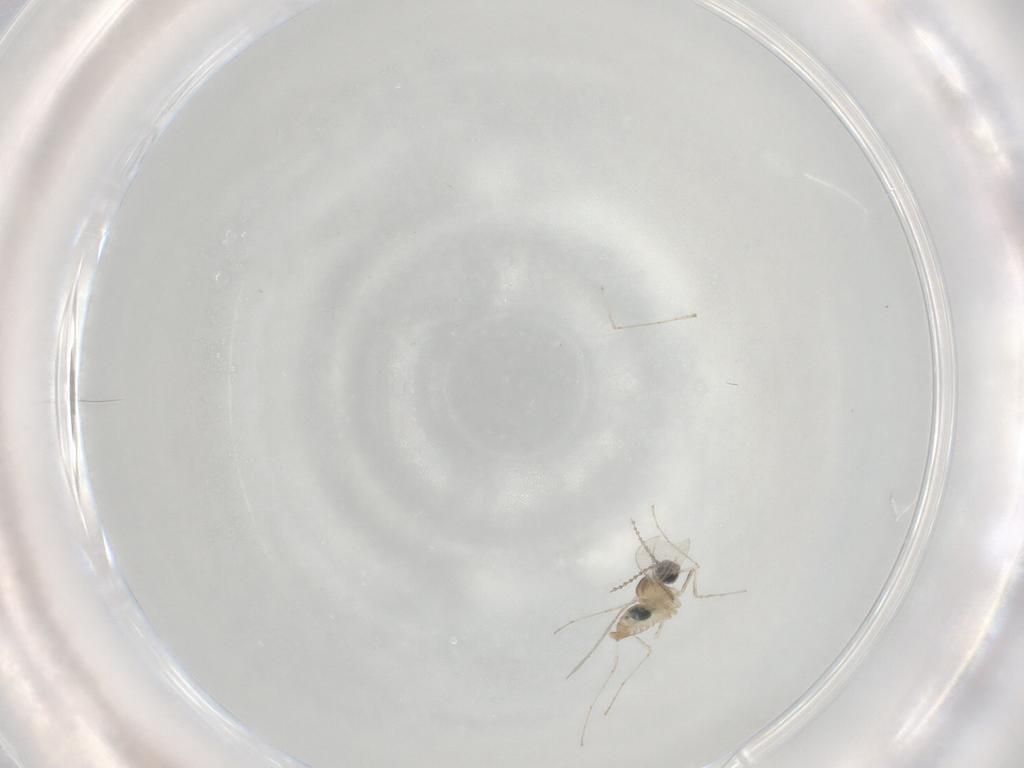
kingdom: Animalia
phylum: Arthropoda
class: Insecta
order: Diptera
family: Cecidomyiidae
